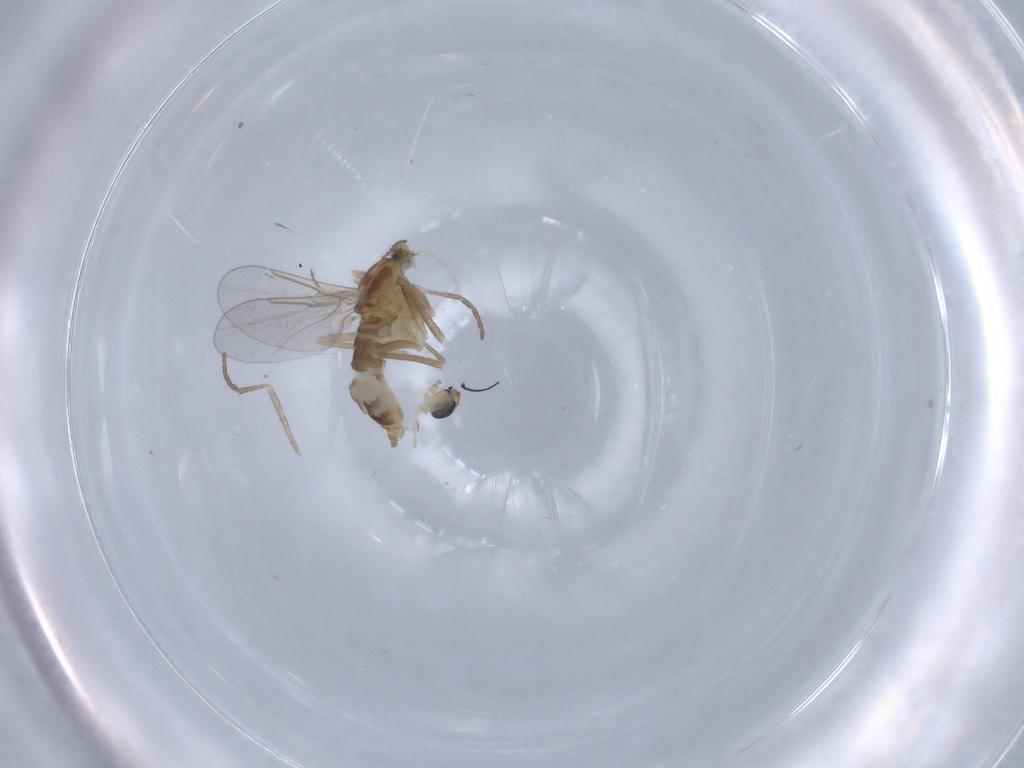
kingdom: Animalia
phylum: Arthropoda
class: Insecta
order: Diptera
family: Cecidomyiidae
